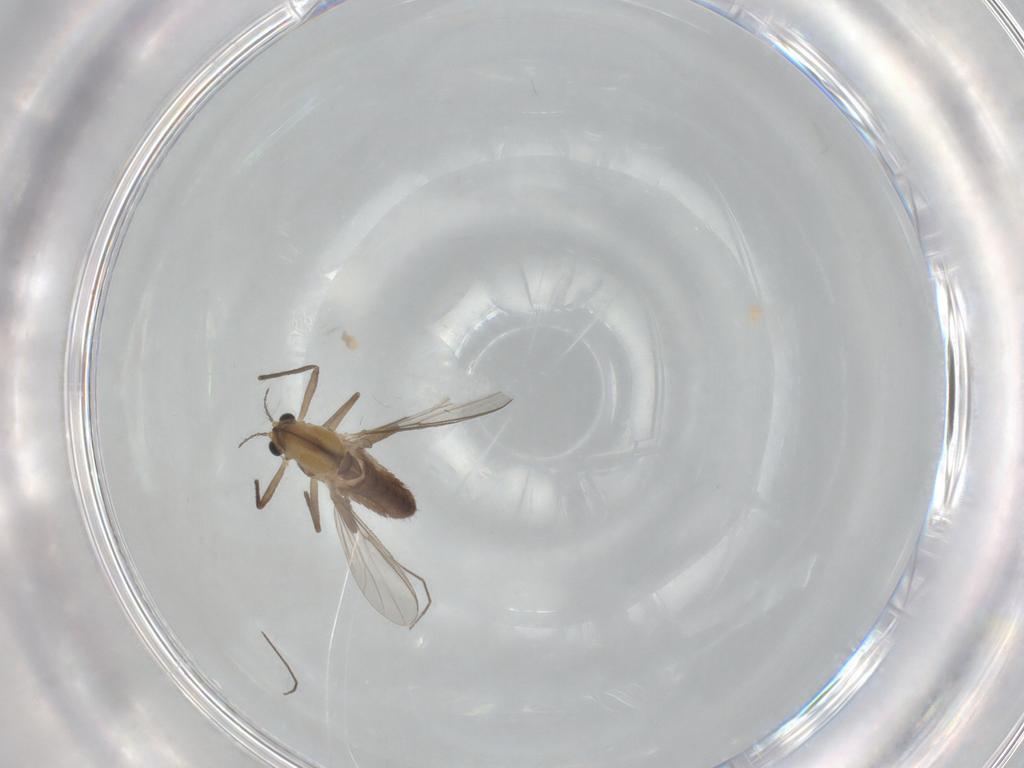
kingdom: Animalia
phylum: Arthropoda
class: Insecta
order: Diptera
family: Chironomidae
